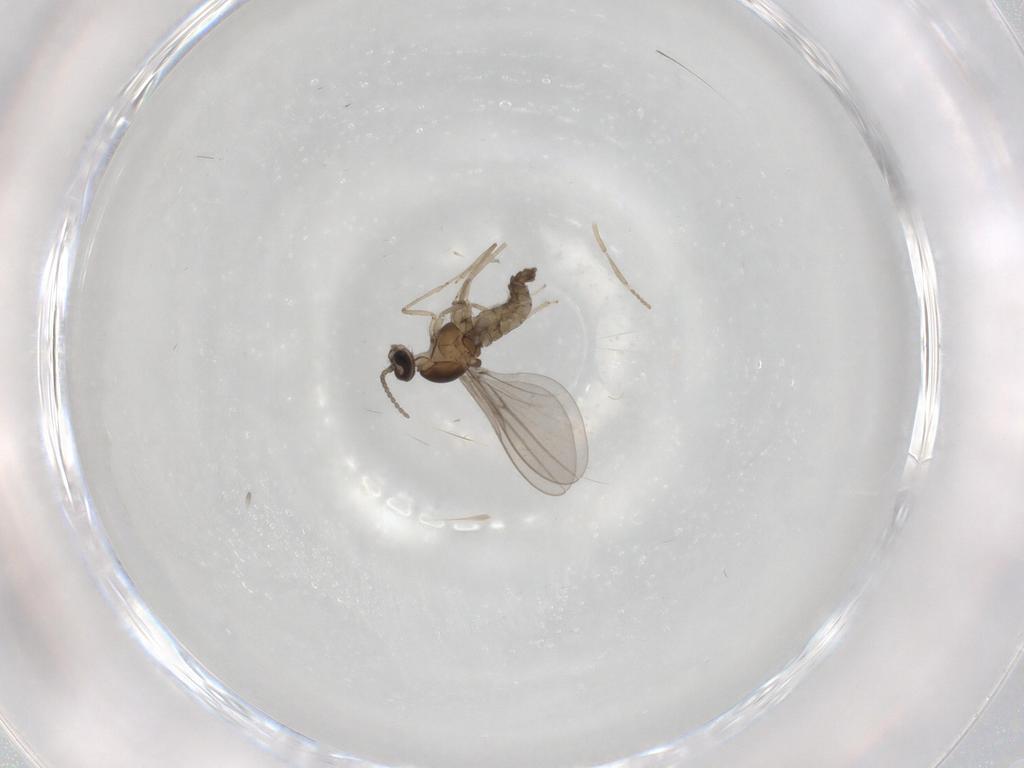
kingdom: Animalia
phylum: Arthropoda
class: Insecta
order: Diptera
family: Cecidomyiidae
